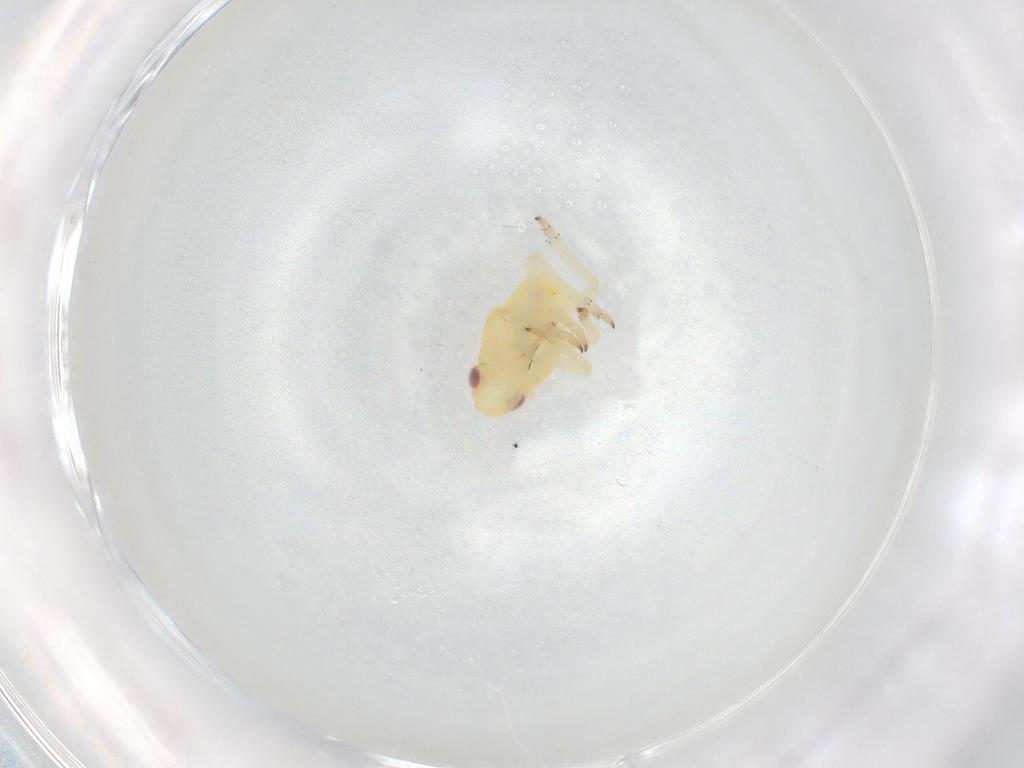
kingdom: Animalia
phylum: Arthropoda
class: Insecta
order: Hemiptera
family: Caliscelidae
